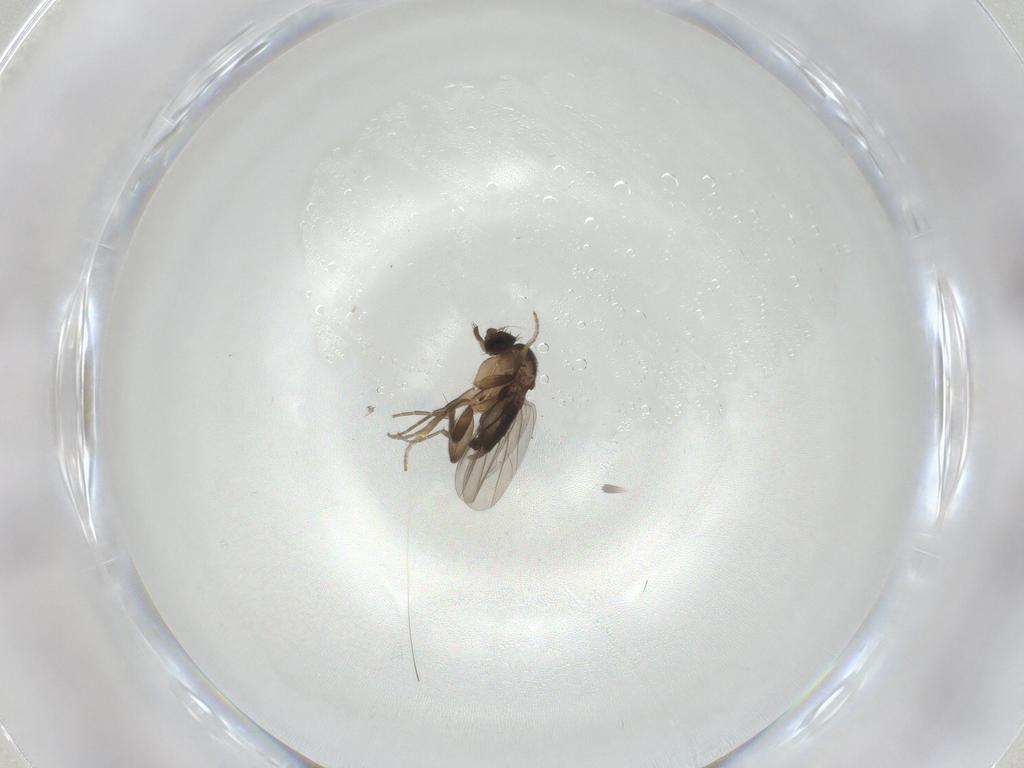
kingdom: Animalia
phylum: Arthropoda
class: Insecta
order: Diptera
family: Phoridae
